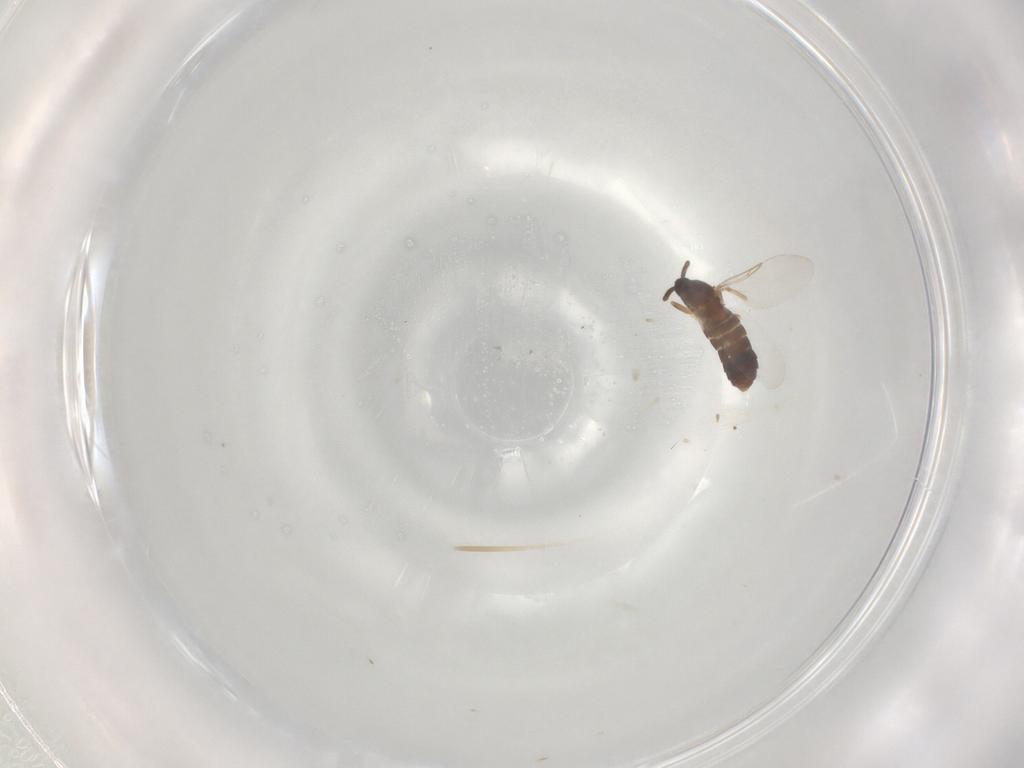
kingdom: Animalia
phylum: Arthropoda
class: Insecta
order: Diptera
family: Scatopsidae
